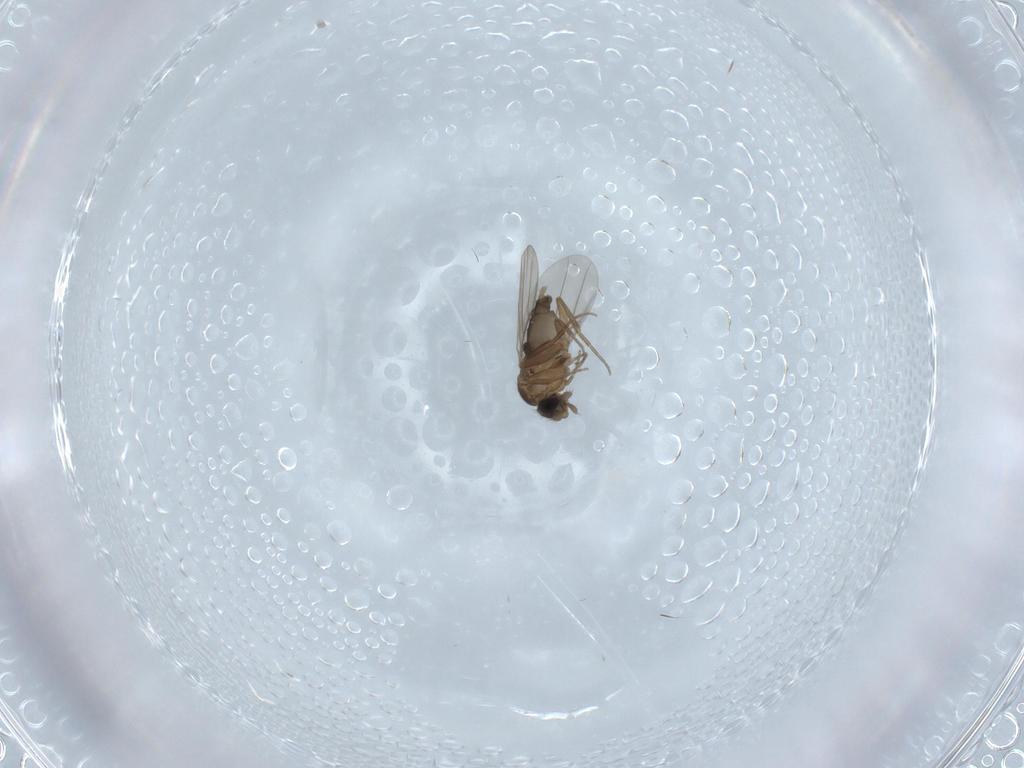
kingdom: Animalia
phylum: Arthropoda
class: Insecta
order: Diptera
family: Phoridae
